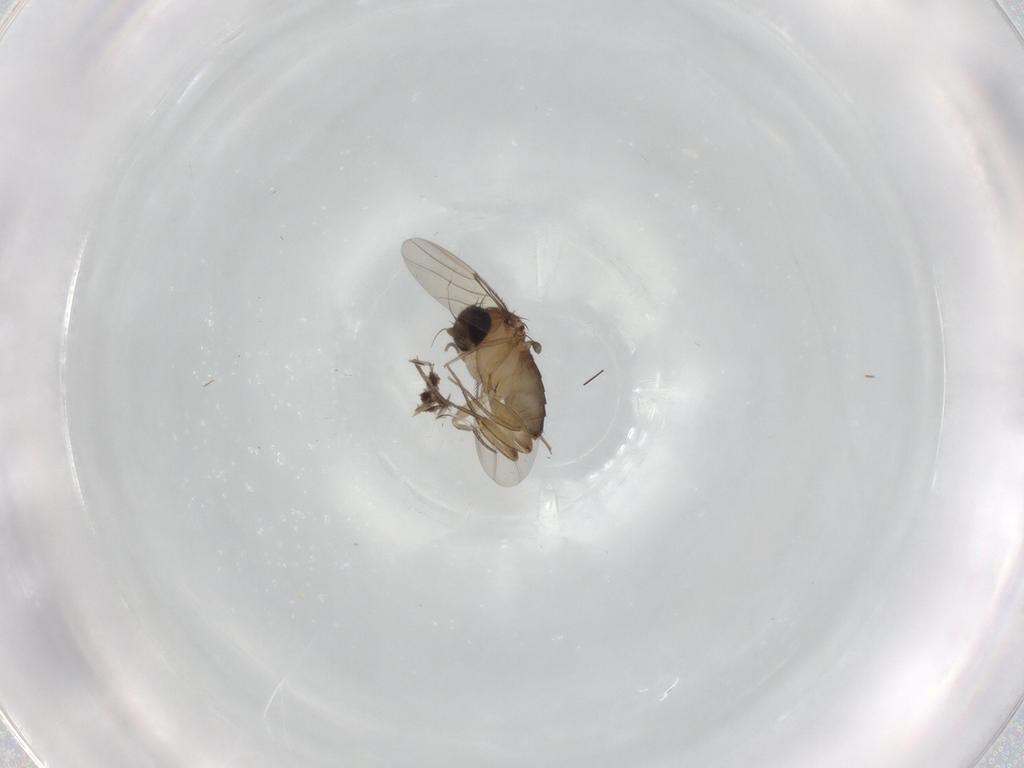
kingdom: Animalia
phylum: Arthropoda
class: Insecta
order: Diptera
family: Phoridae
